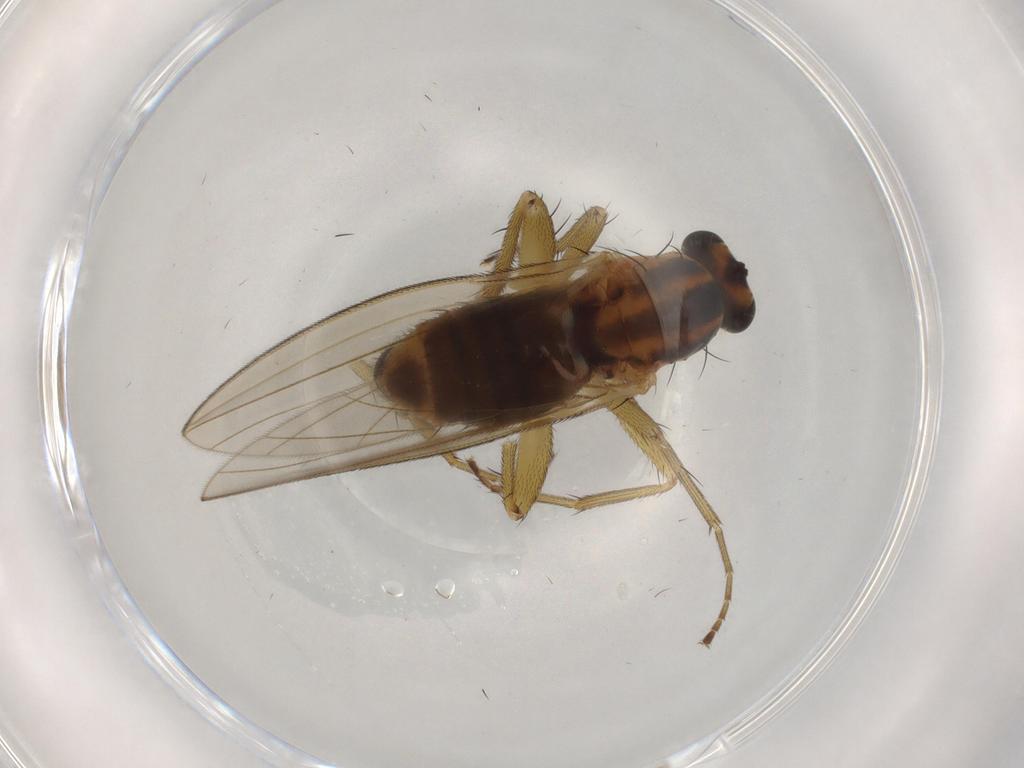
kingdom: Animalia
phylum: Arthropoda
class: Insecta
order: Diptera
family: Lonchopteridae
